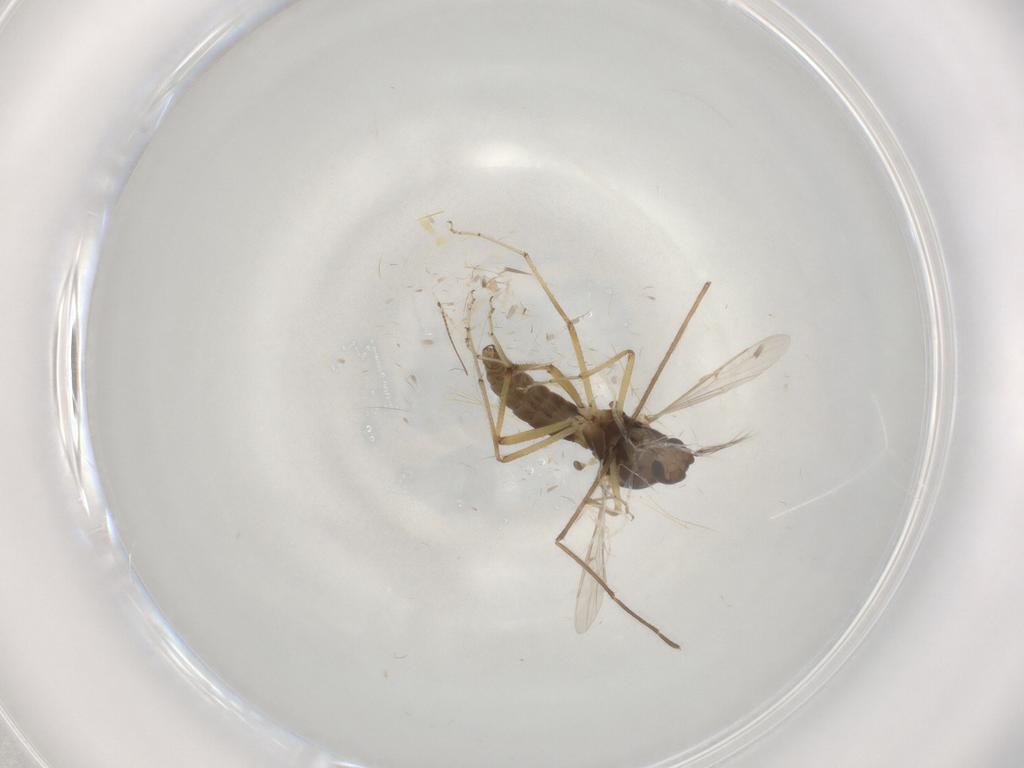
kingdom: Animalia
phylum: Arthropoda
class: Insecta
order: Diptera
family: Ceratopogonidae
